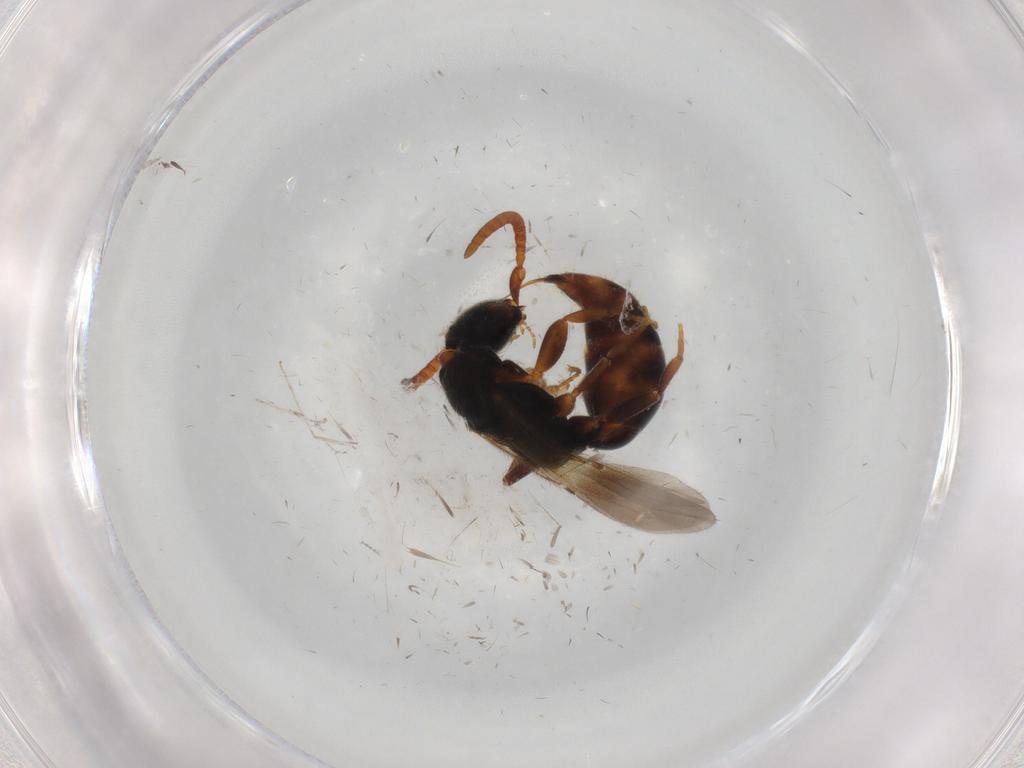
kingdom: Animalia
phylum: Arthropoda
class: Insecta
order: Hymenoptera
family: Bethylidae
